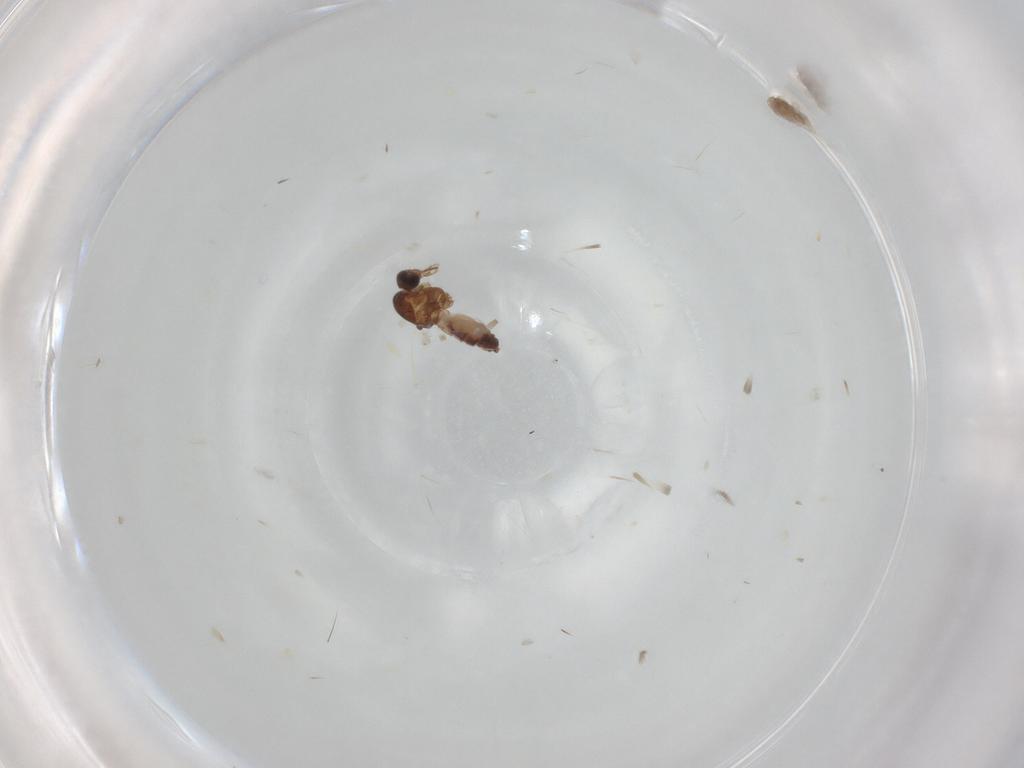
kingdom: Animalia
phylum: Arthropoda
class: Insecta
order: Diptera
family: Ceratopogonidae
